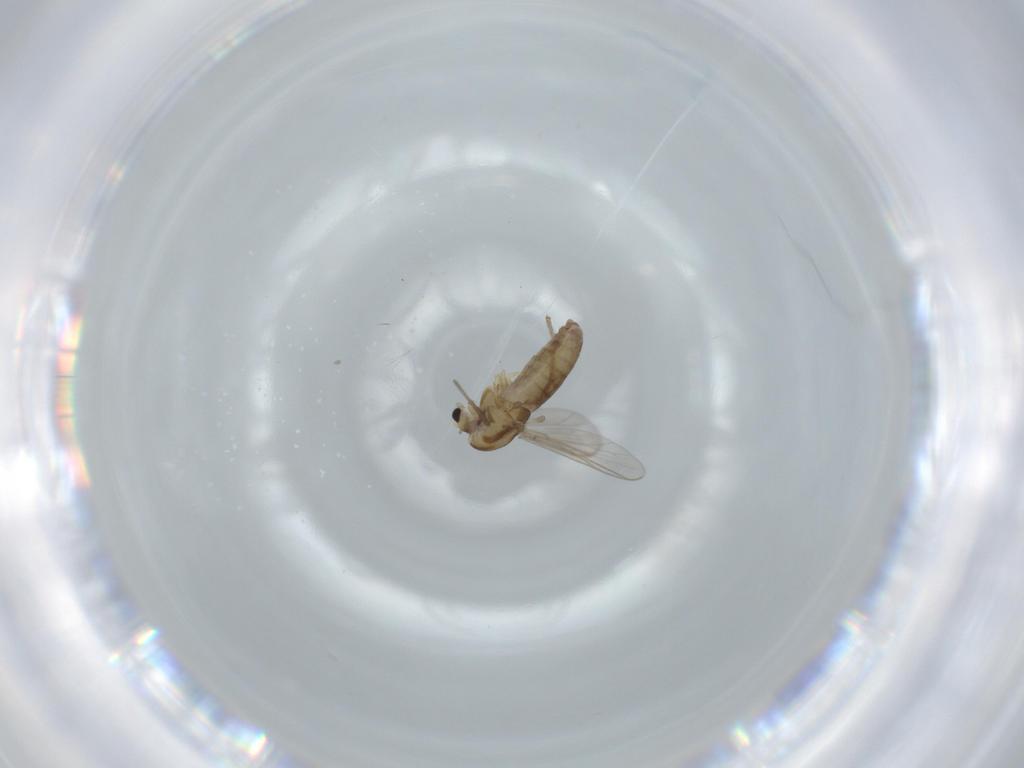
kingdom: Animalia
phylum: Arthropoda
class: Insecta
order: Diptera
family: Chironomidae
